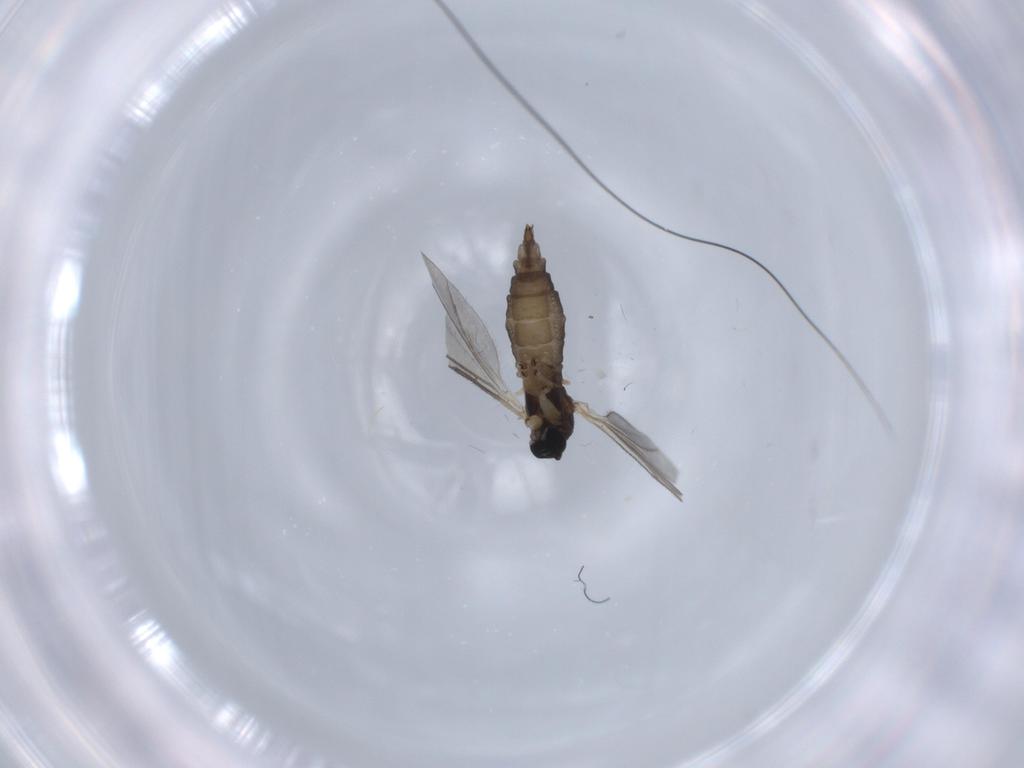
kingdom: Animalia
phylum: Arthropoda
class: Insecta
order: Diptera
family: Sciaridae
